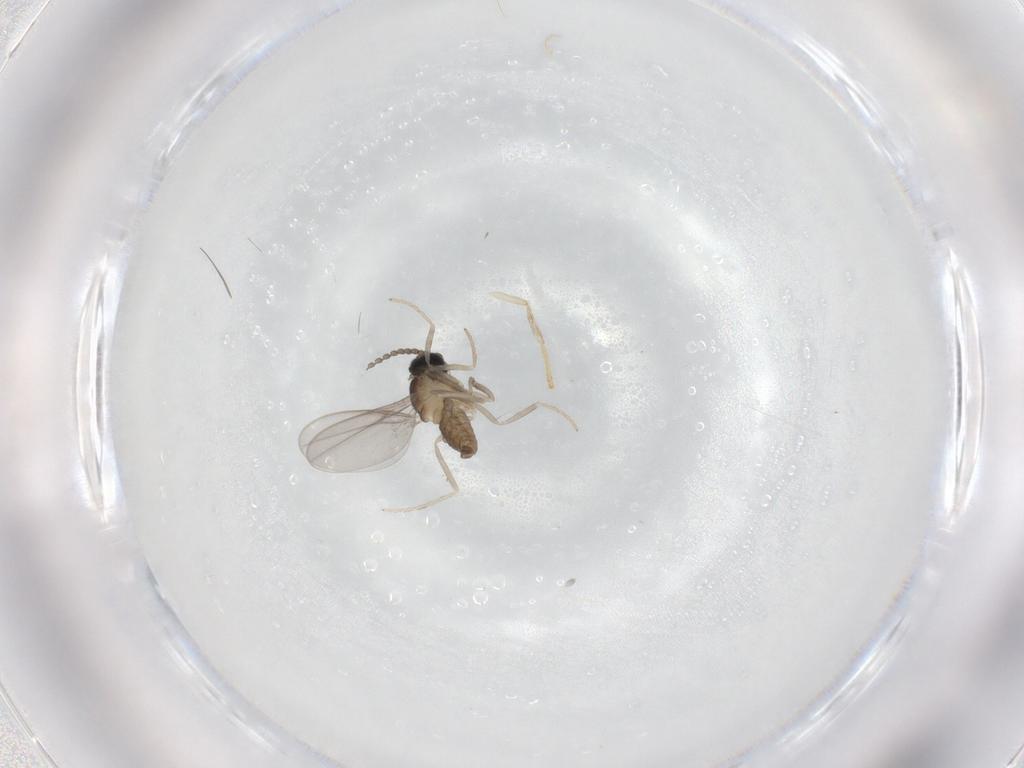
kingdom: Animalia
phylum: Arthropoda
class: Insecta
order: Diptera
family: Psychodidae
